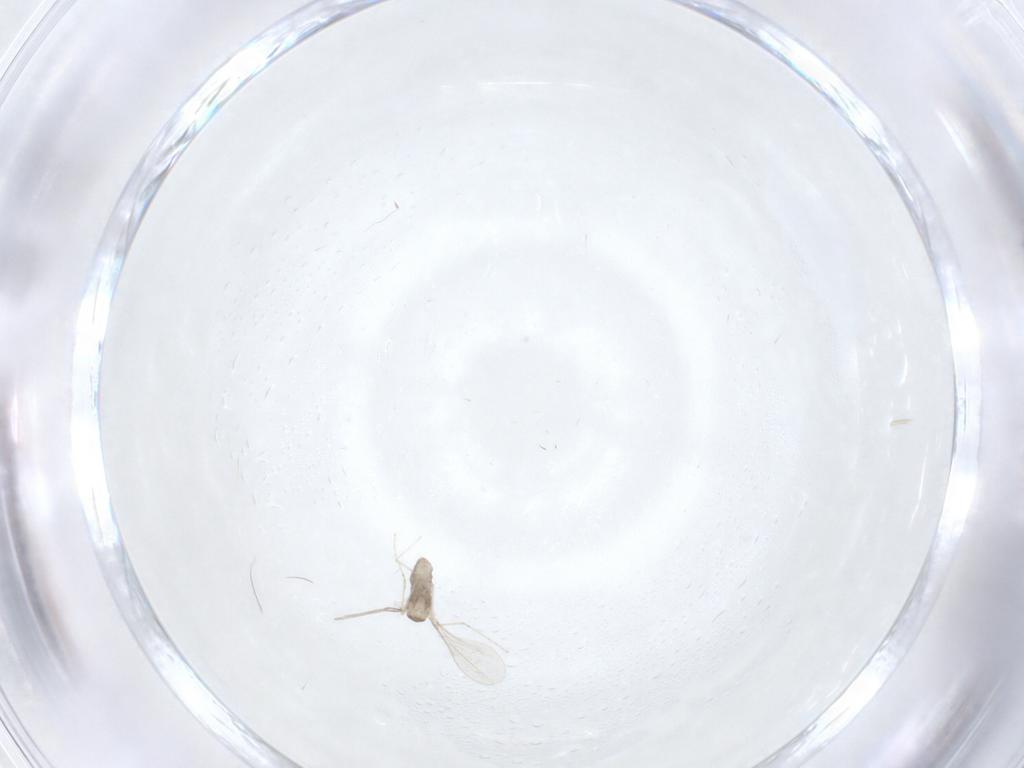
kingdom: Animalia
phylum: Arthropoda
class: Insecta
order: Diptera
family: Cecidomyiidae
